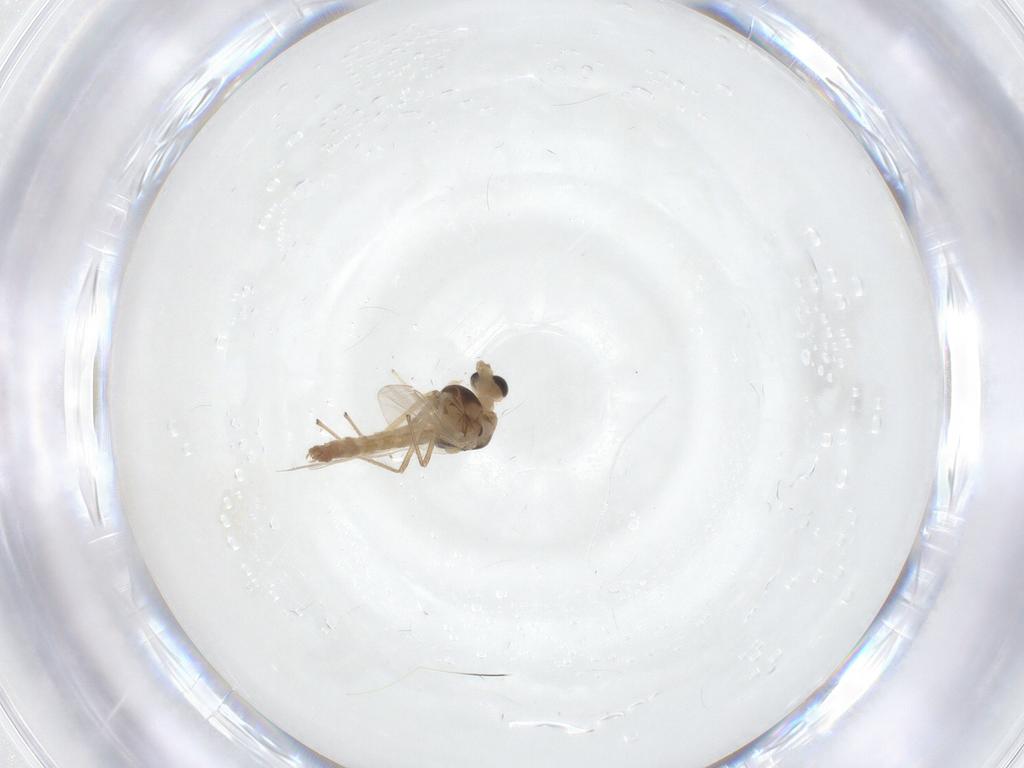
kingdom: Animalia
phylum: Arthropoda
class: Insecta
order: Diptera
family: Chironomidae
